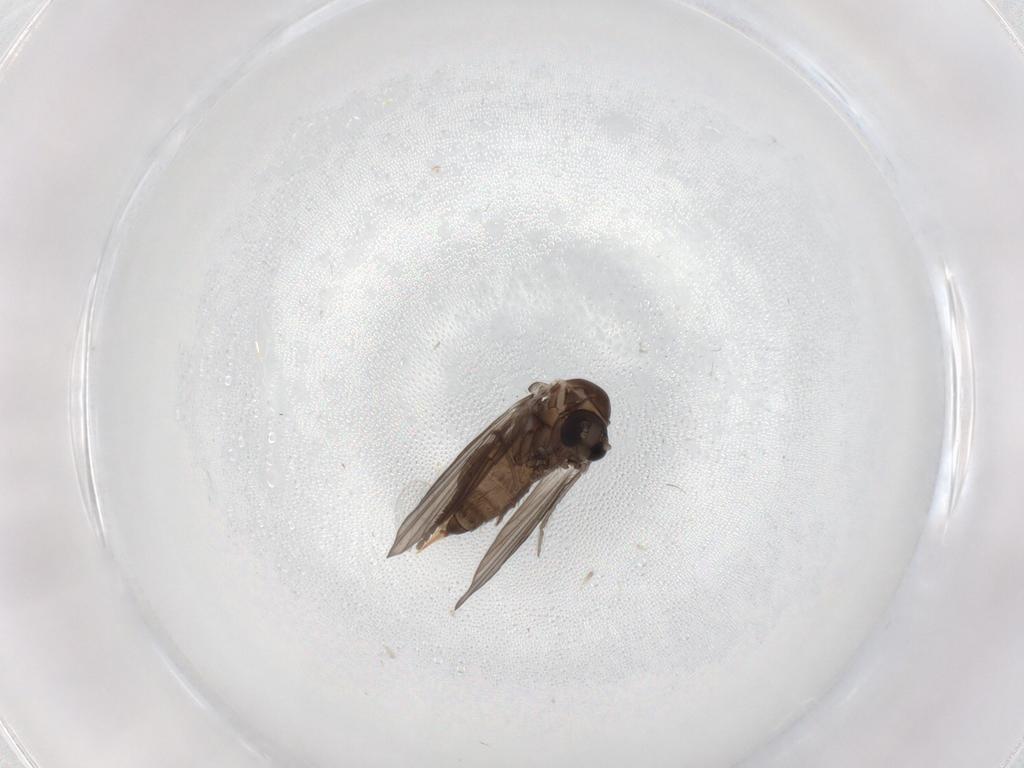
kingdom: Animalia
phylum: Arthropoda
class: Insecta
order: Diptera
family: Psychodidae
